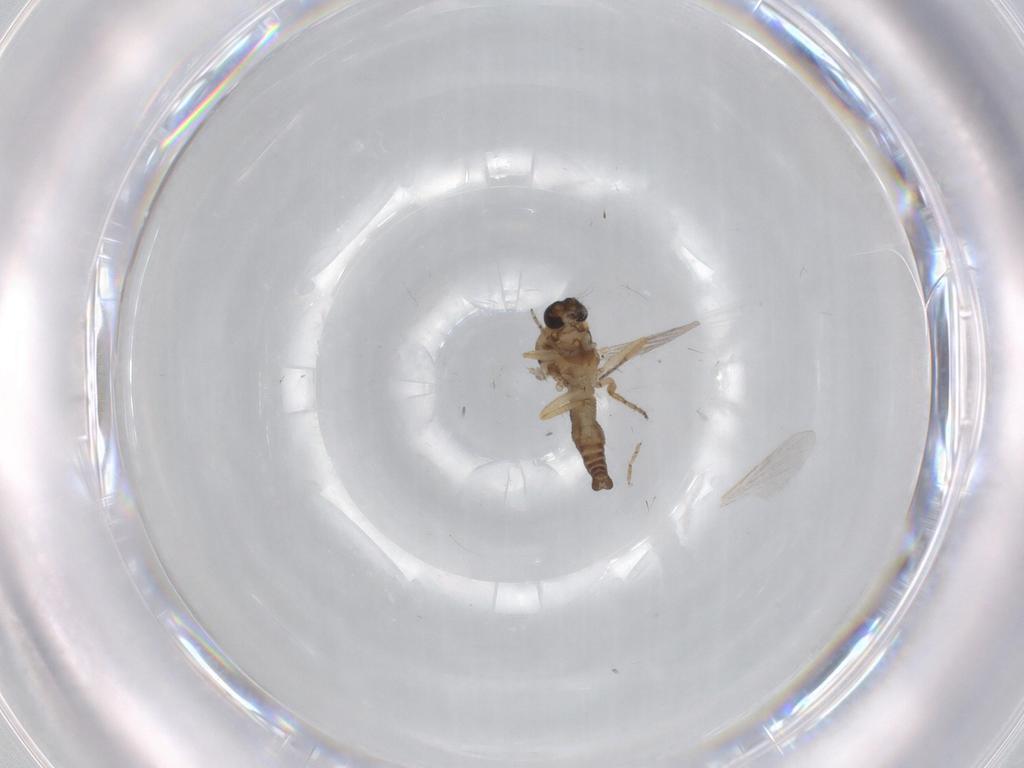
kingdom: Animalia
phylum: Arthropoda
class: Insecta
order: Diptera
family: Ceratopogonidae
